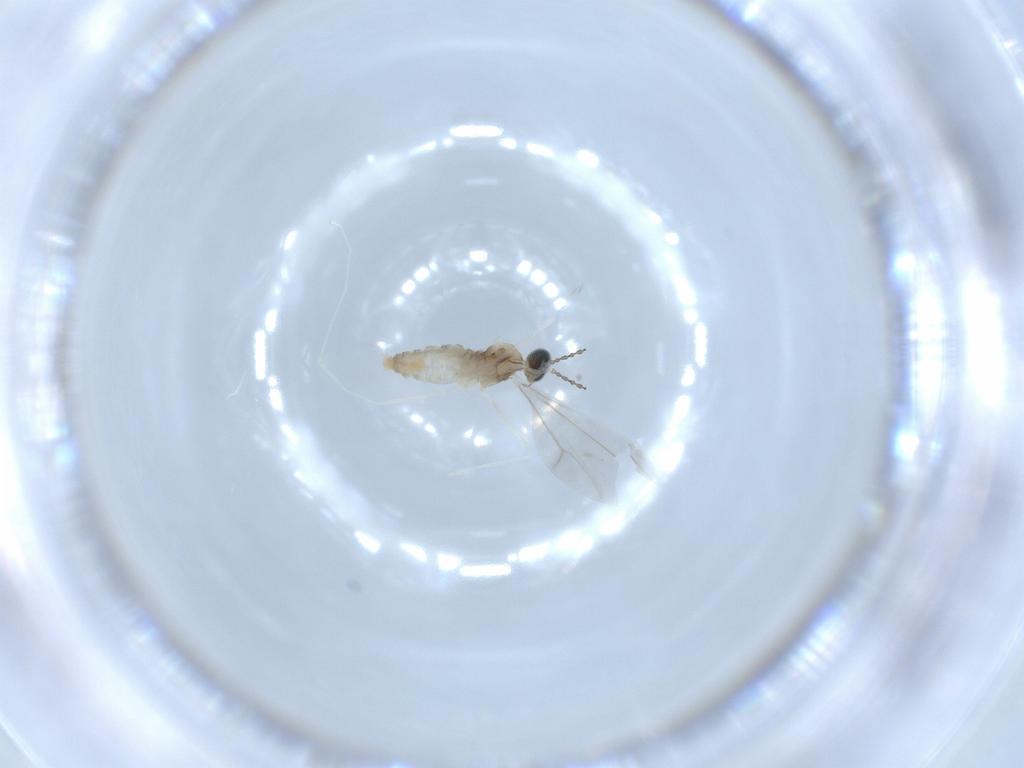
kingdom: Animalia
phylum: Arthropoda
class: Insecta
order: Diptera
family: Cecidomyiidae
